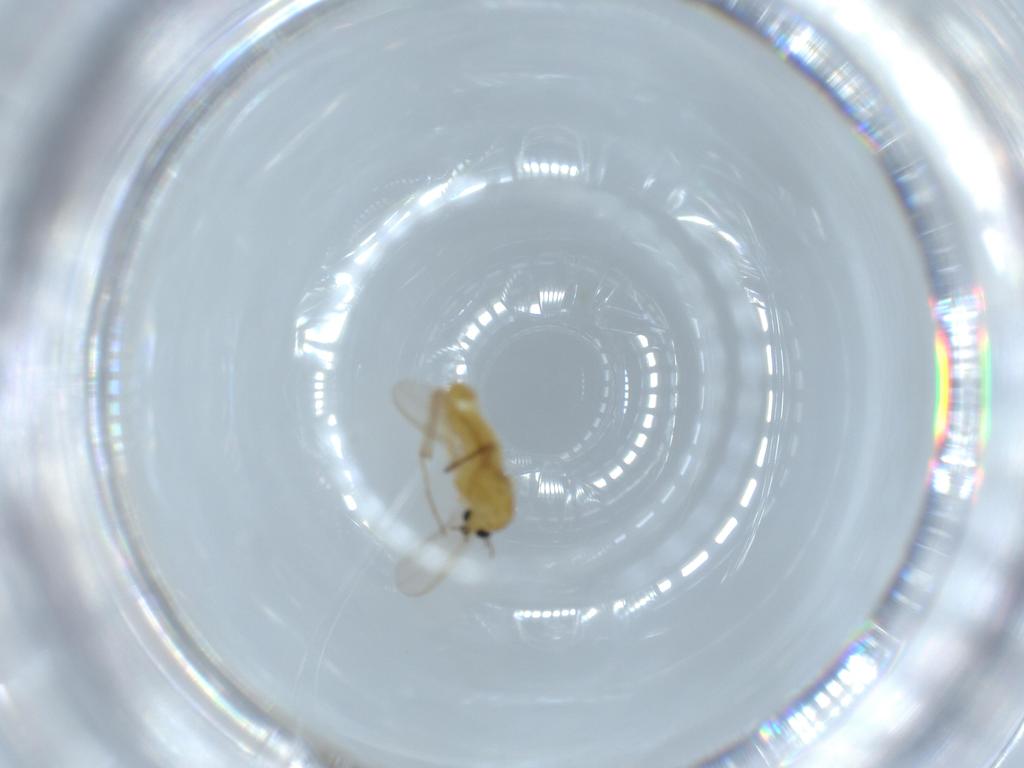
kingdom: Animalia
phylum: Arthropoda
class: Insecta
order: Diptera
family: Chironomidae
